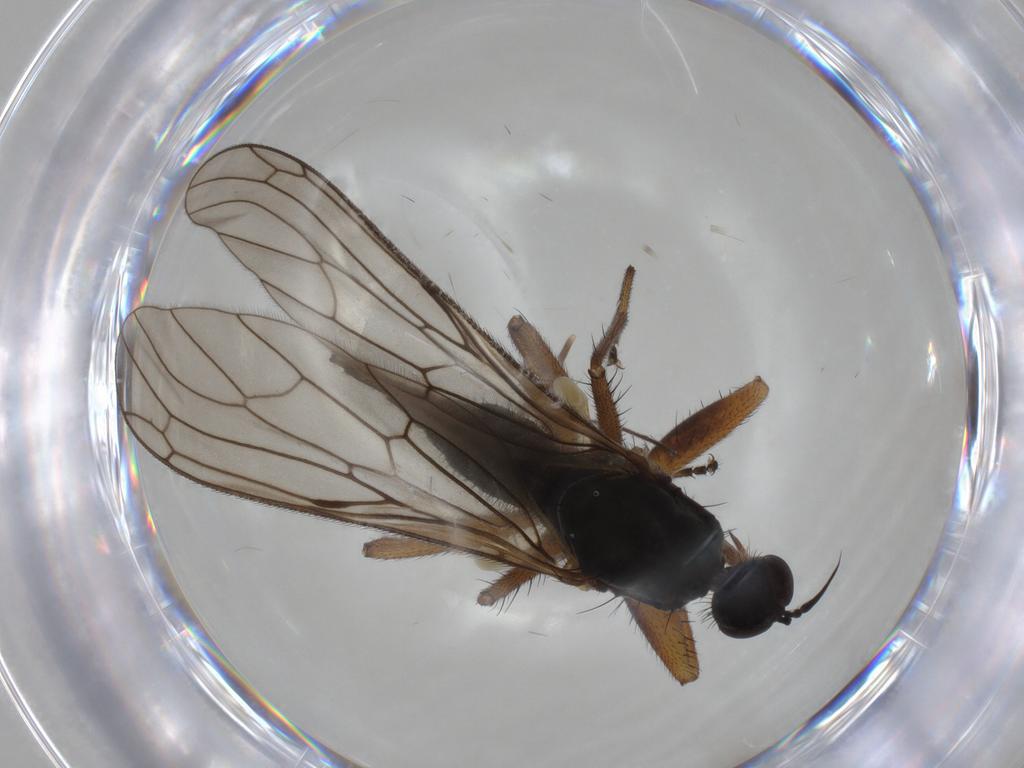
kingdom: Animalia
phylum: Arthropoda
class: Insecta
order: Diptera
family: Empididae
